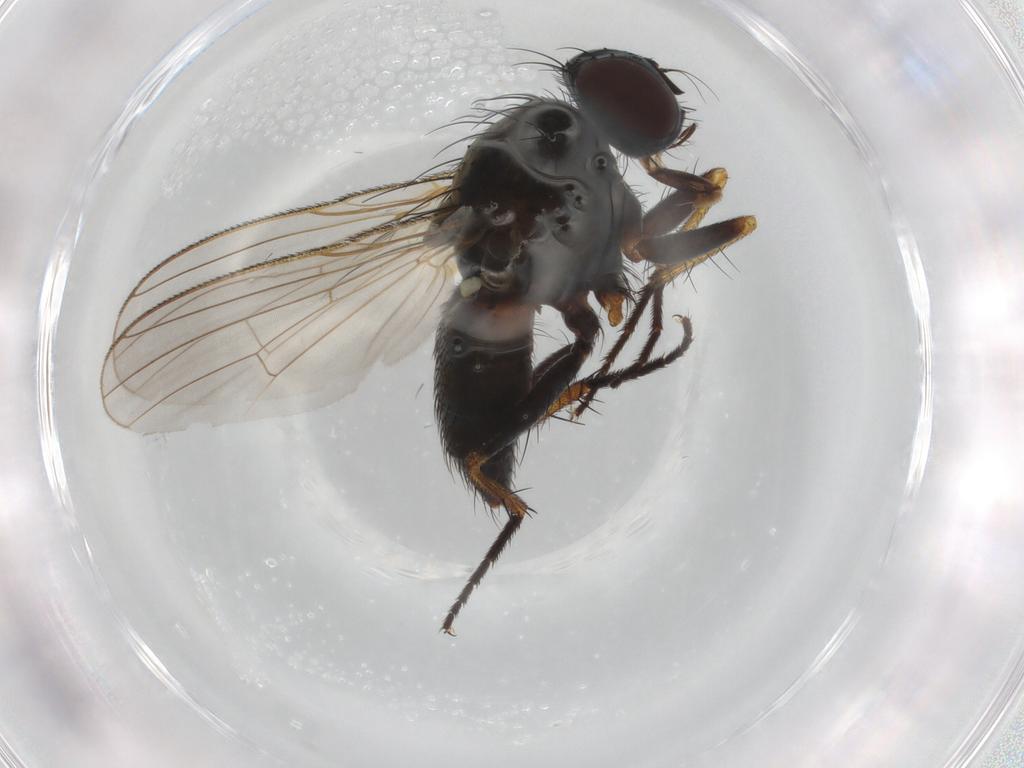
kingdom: Animalia
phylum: Arthropoda
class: Insecta
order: Diptera
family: Muscidae
